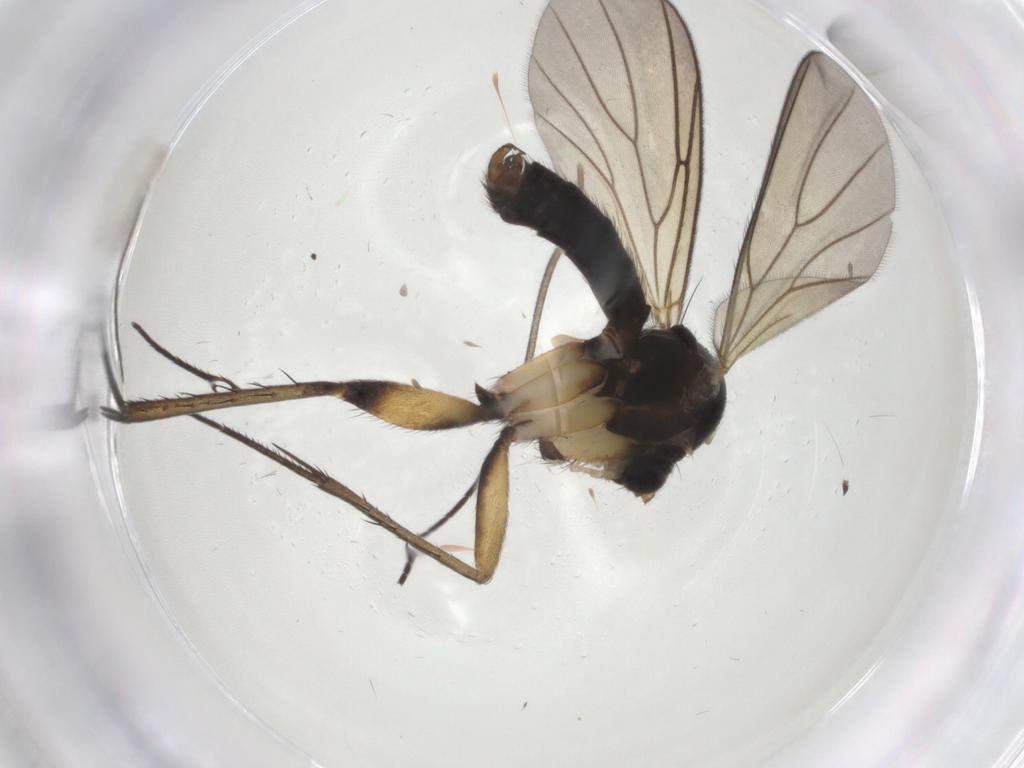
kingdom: Animalia
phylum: Arthropoda
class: Insecta
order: Diptera
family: Sciaridae
